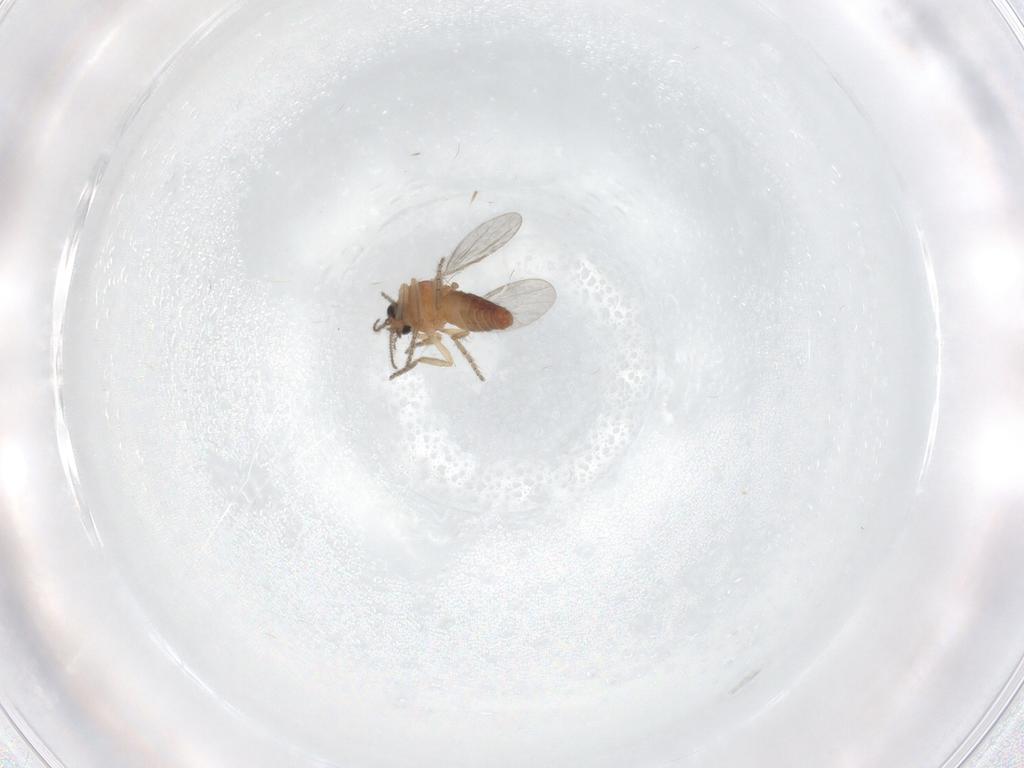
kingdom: Animalia
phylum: Arthropoda
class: Insecta
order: Diptera
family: Ceratopogonidae
